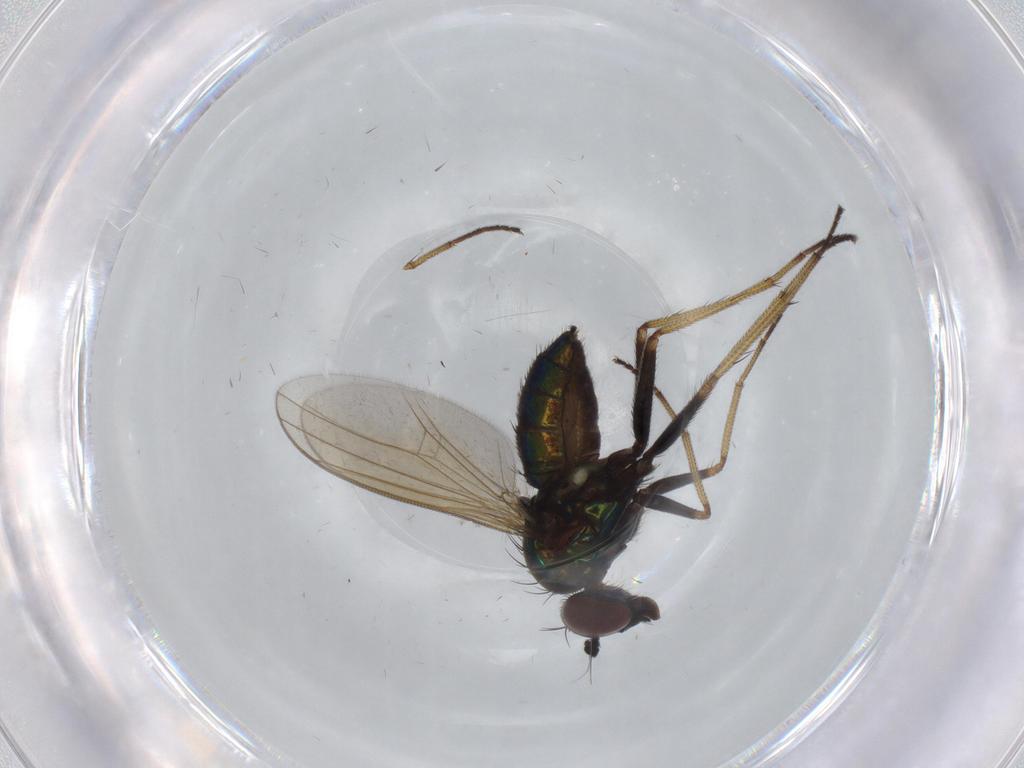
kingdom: Animalia
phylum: Arthropoda
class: Insecta
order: Diptera
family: Dolichopodidae
